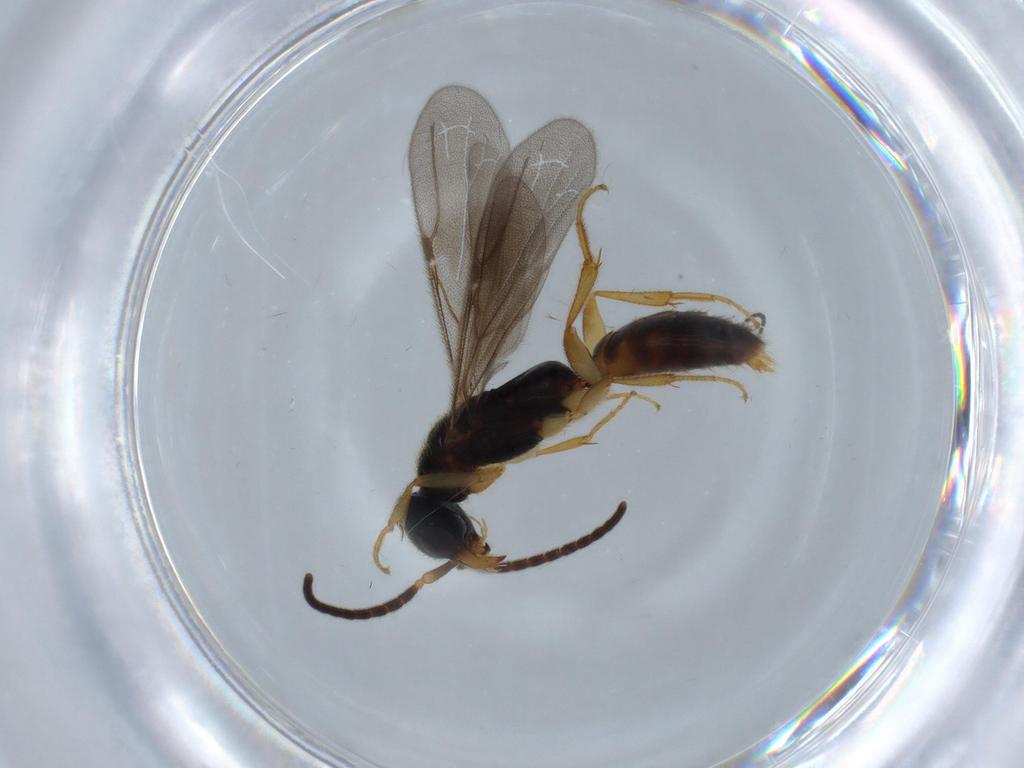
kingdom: Animalia
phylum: Arthropoda
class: Insecta
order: Hymenoptera
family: Bethylidae
